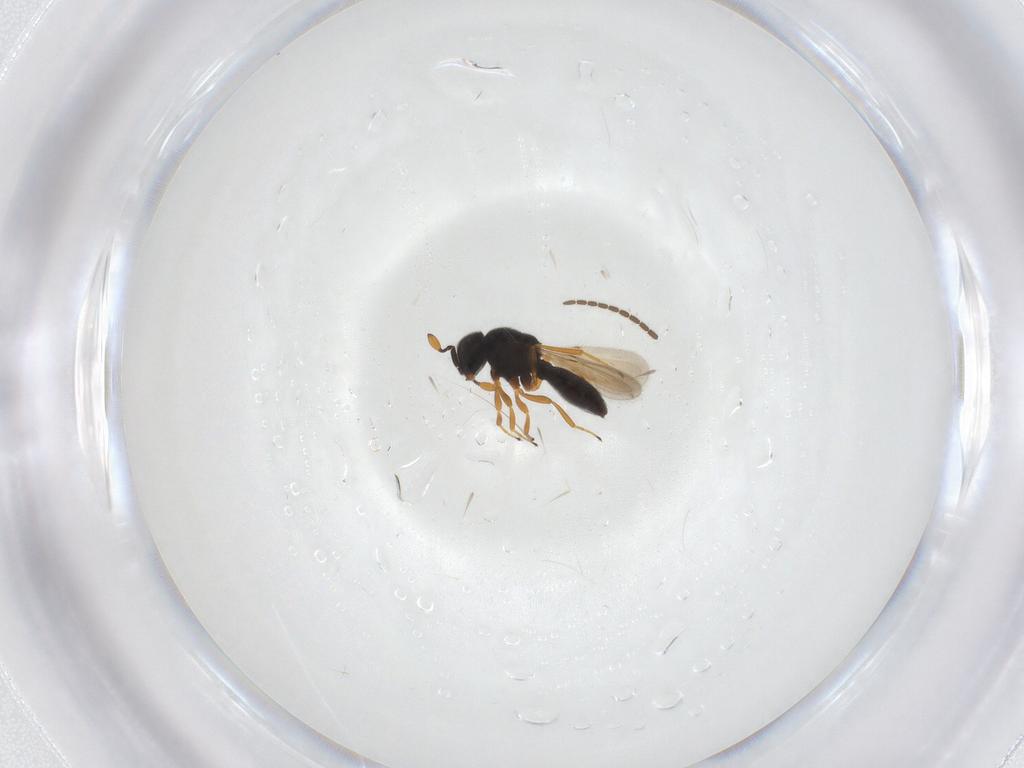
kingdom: Animalia
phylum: Arthropoda
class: Insecta
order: Hymenoptera
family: Scelionidae
